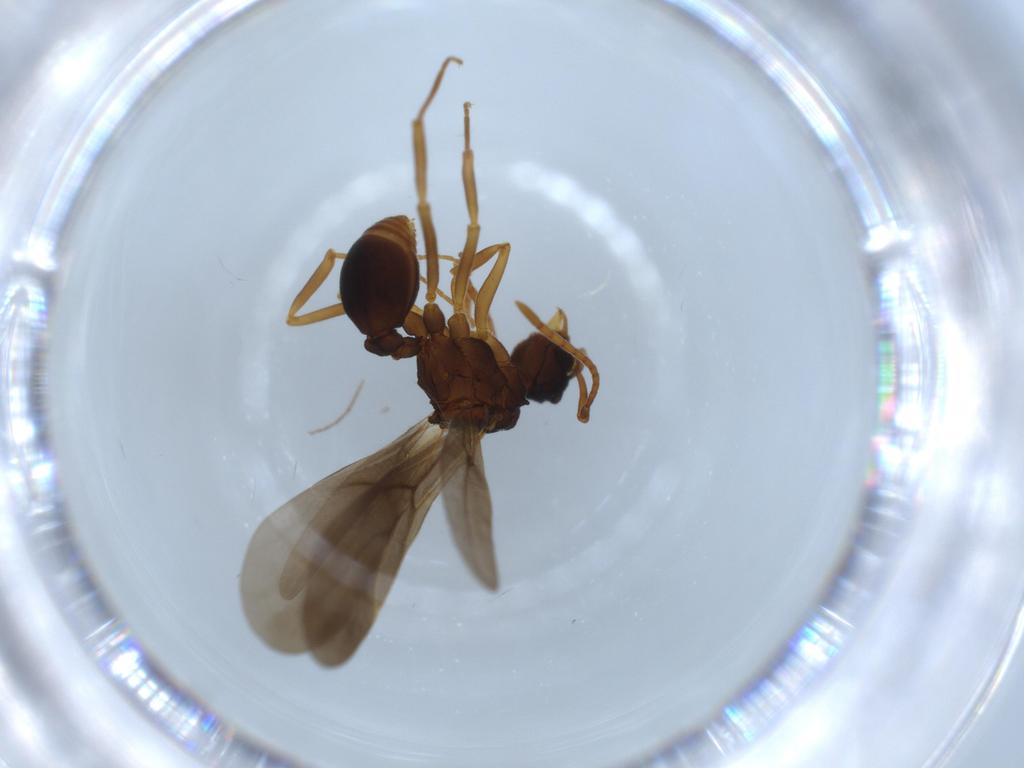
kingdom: Animalia
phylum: Arthropoda
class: Insecta
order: Hymenoptera
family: Formicidae
